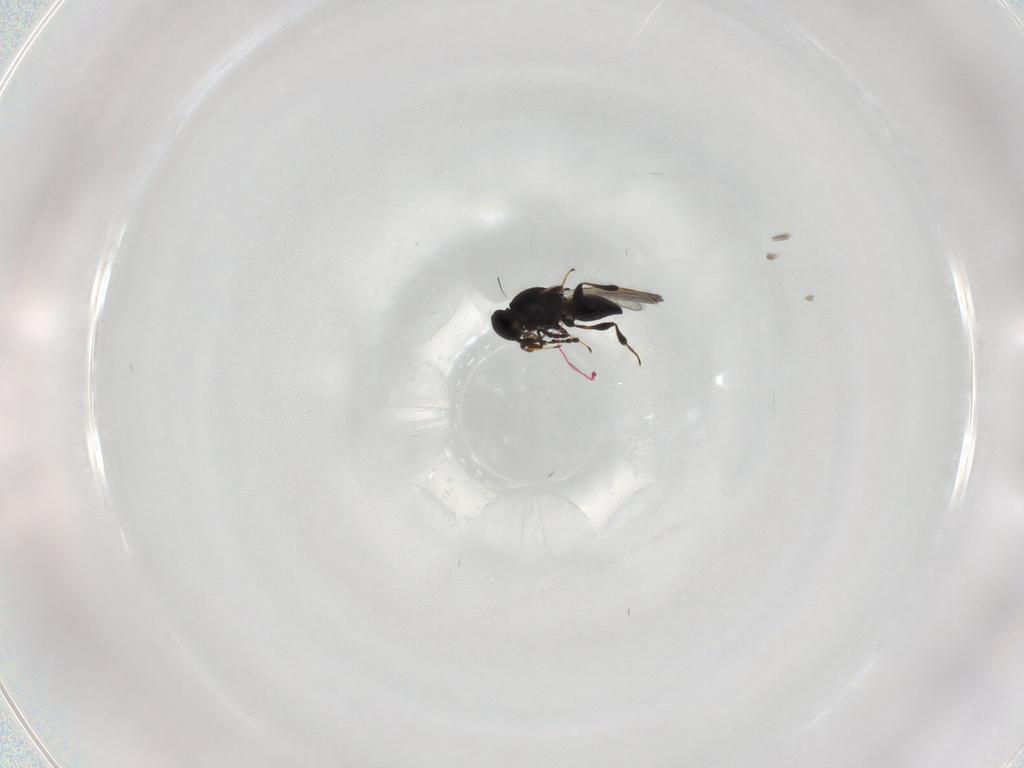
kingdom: Animalia
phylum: Arthropoda
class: Insecta
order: Hymenoptera
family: Platygastridae
